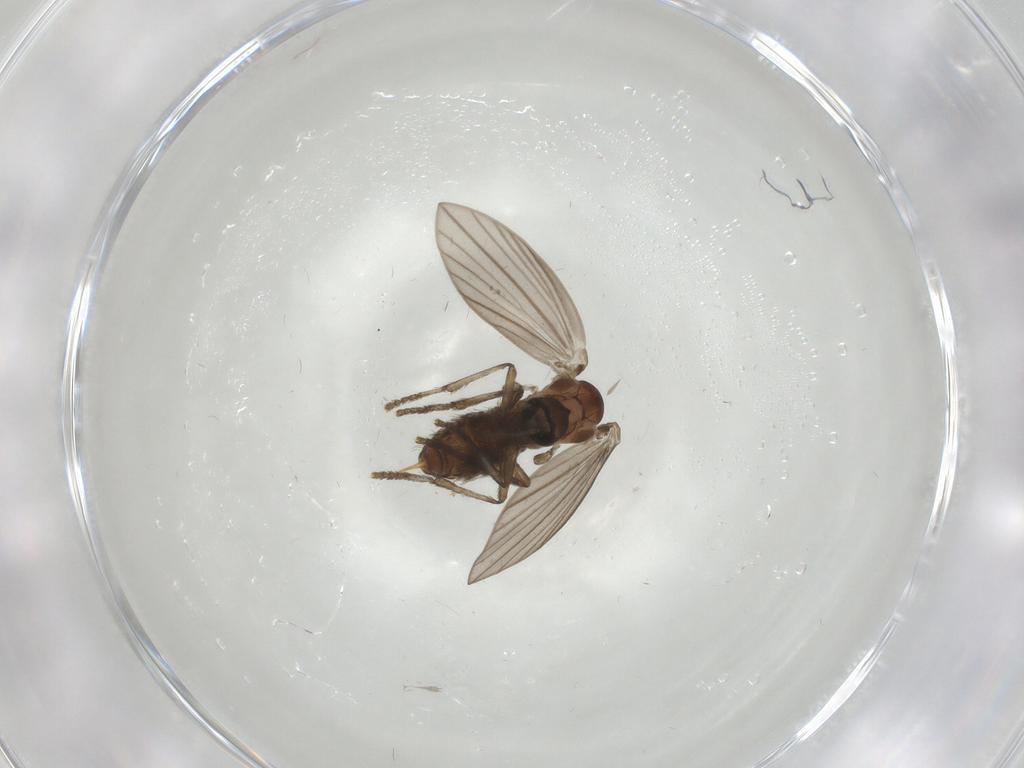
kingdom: Animalia
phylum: Arthropoda
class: Insecta
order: Diptera
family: Psychodidae
